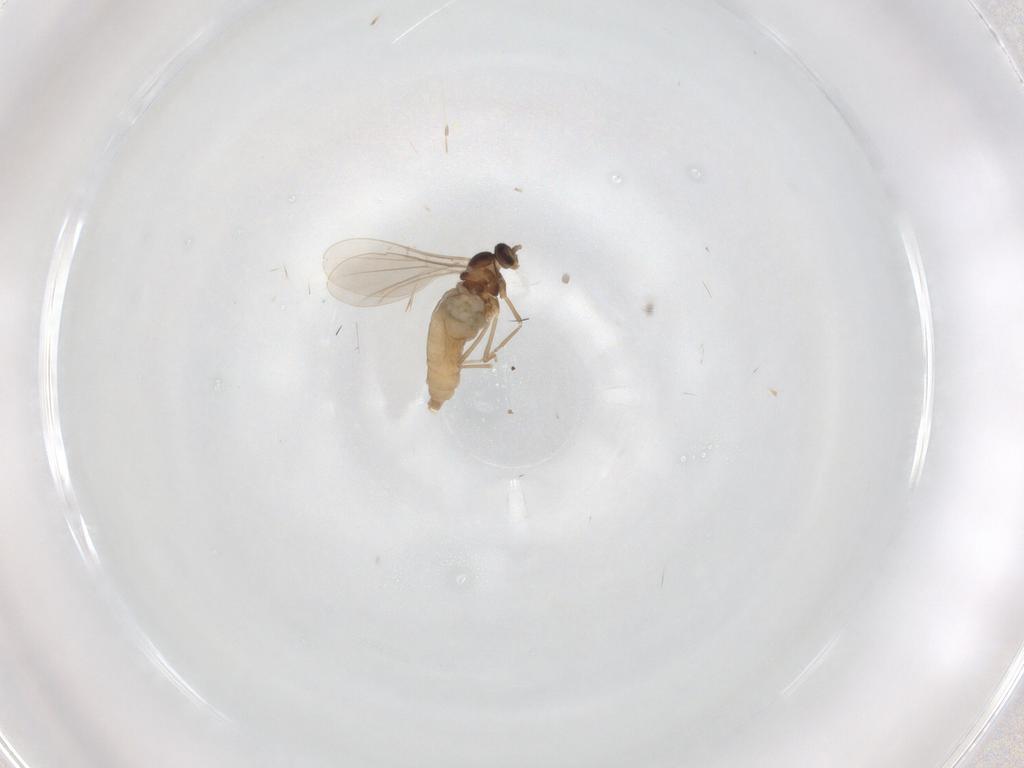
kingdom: Animalia
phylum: Arthropoda
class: Insecta
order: Diptera
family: Cecidomyiidae
